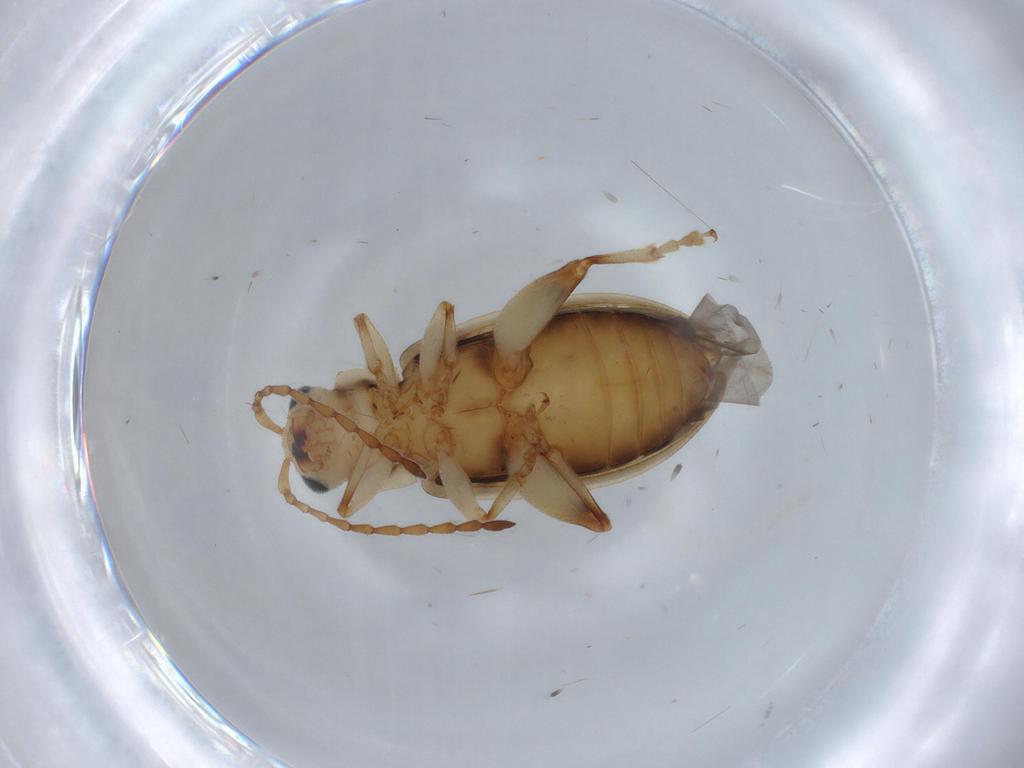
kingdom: Animalia
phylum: Arthropoda
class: Insecta
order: Coleoptera
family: Chrysomelidae
